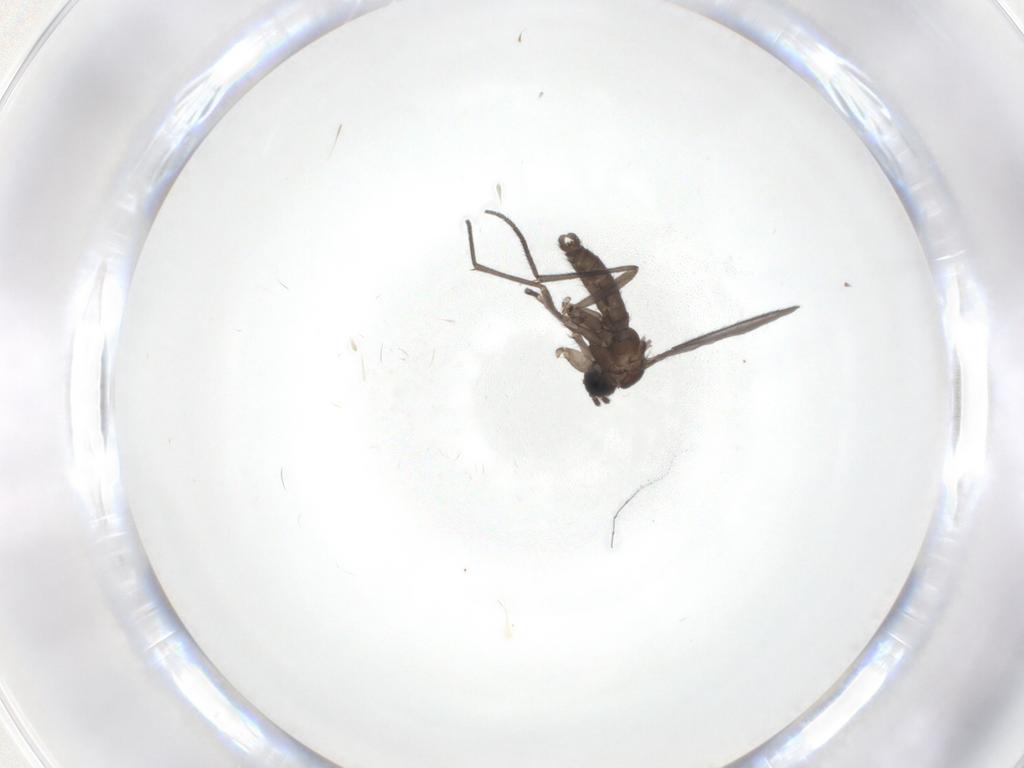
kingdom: Animalia
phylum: Arthropoda
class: Insecta
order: Diptera
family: Sciaridae
